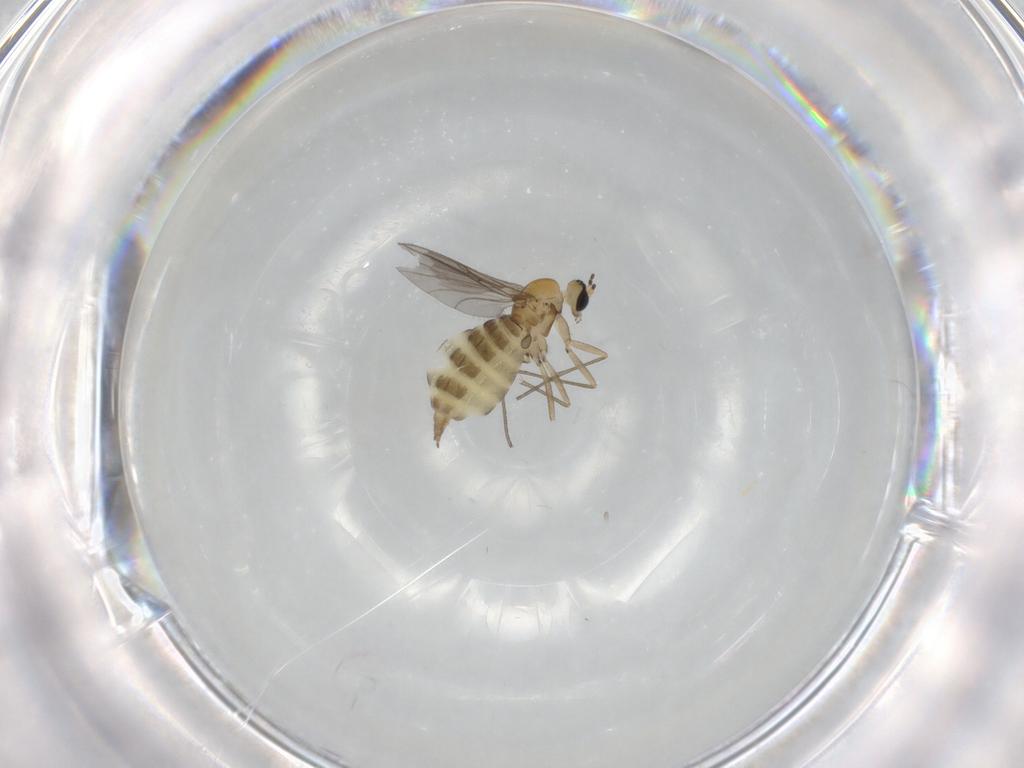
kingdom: Animalia
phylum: Arthropoda
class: Insecta
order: Diptera
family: Sciaridae
